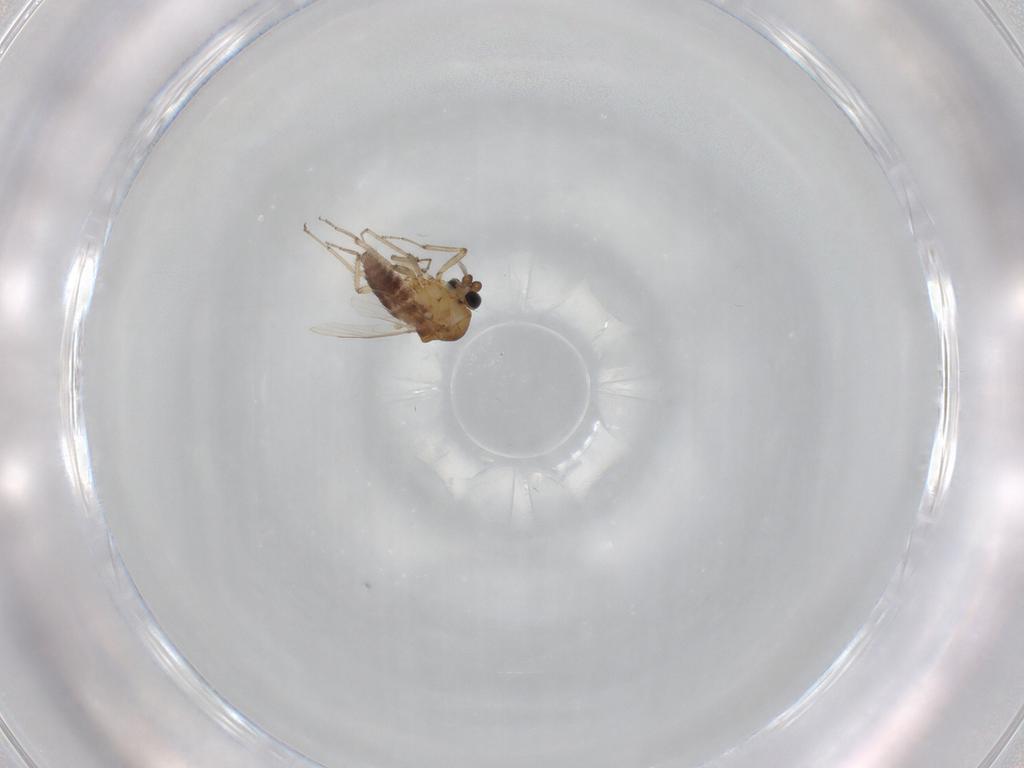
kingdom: Animalia
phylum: Arthropoda
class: Insecta
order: Diptera
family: Ceratopogonidae
